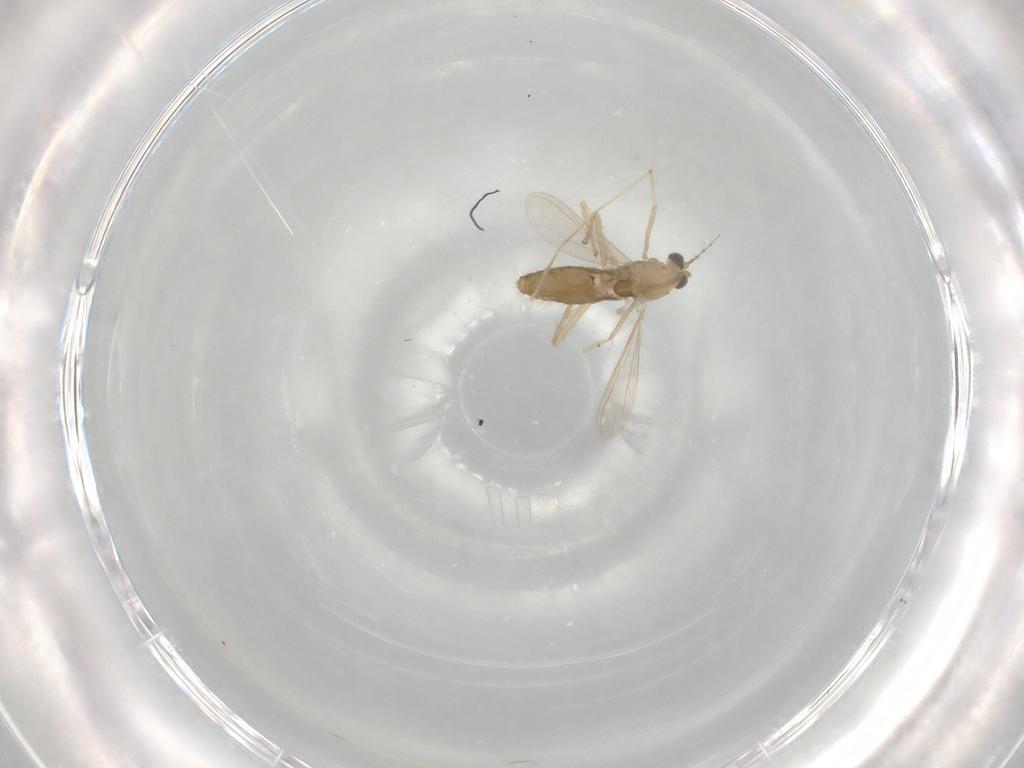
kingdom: Animalia
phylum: Arthropoda
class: Insecta
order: Diptera
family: Chironomidae
